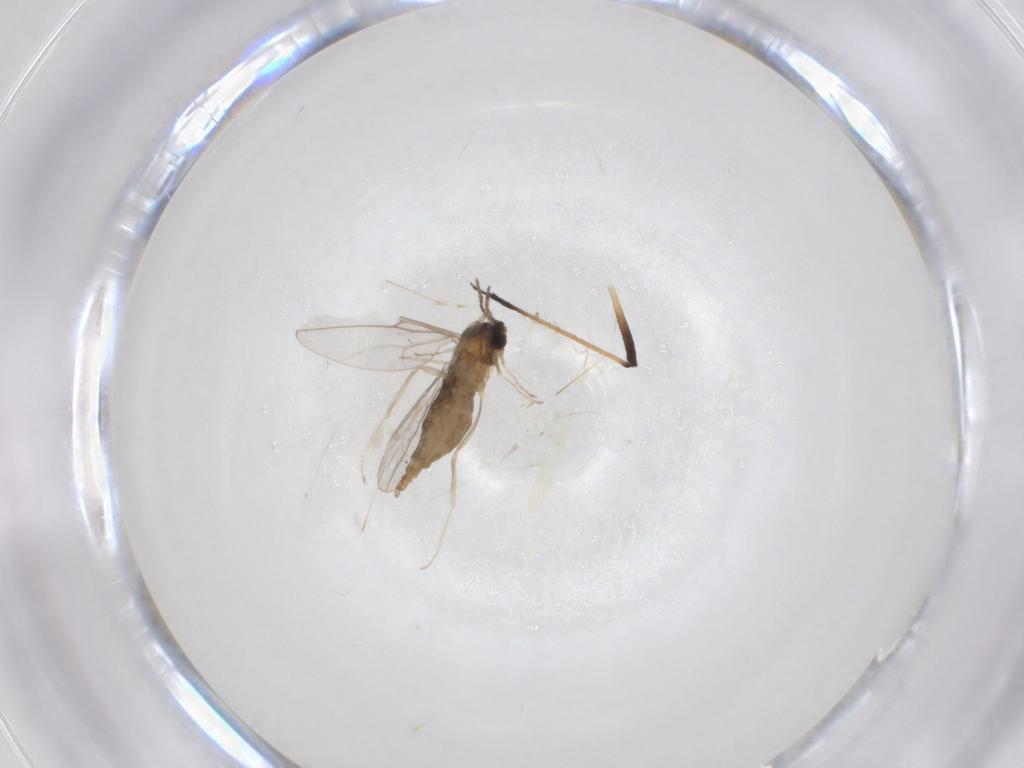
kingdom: Animalia
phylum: Arthropoda
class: Insecta
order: Diptera
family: Cecidomyiidae
